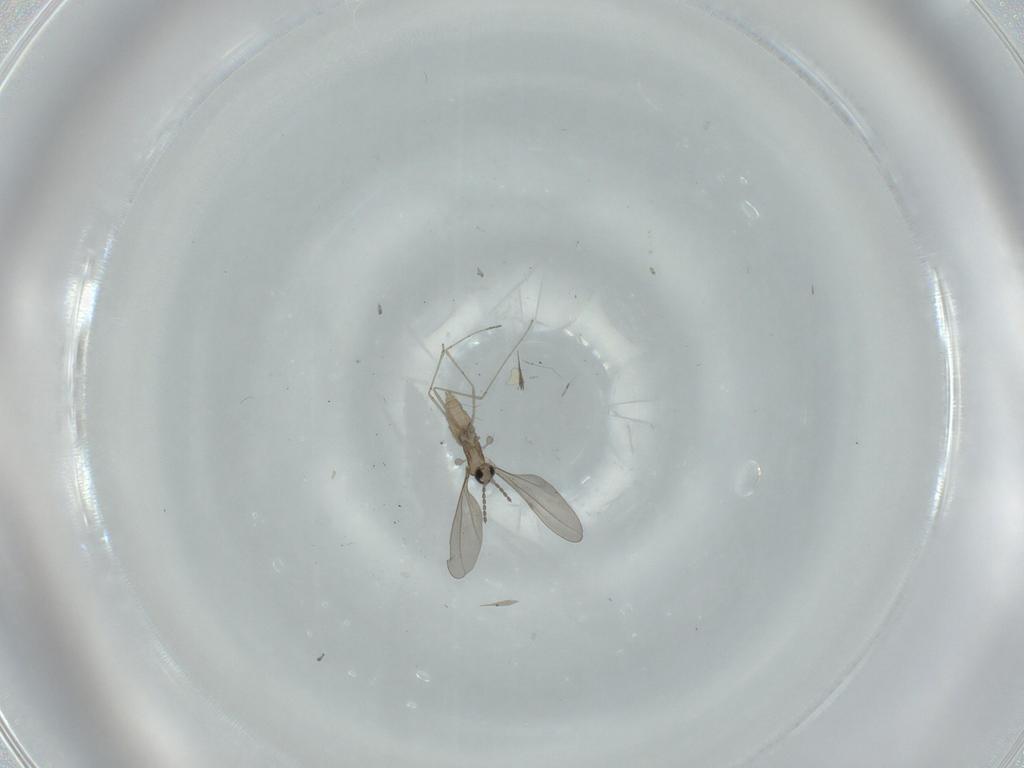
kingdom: Animalia
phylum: Arthropoda
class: Insecta
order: Diptera
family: Cecidomyiidae
